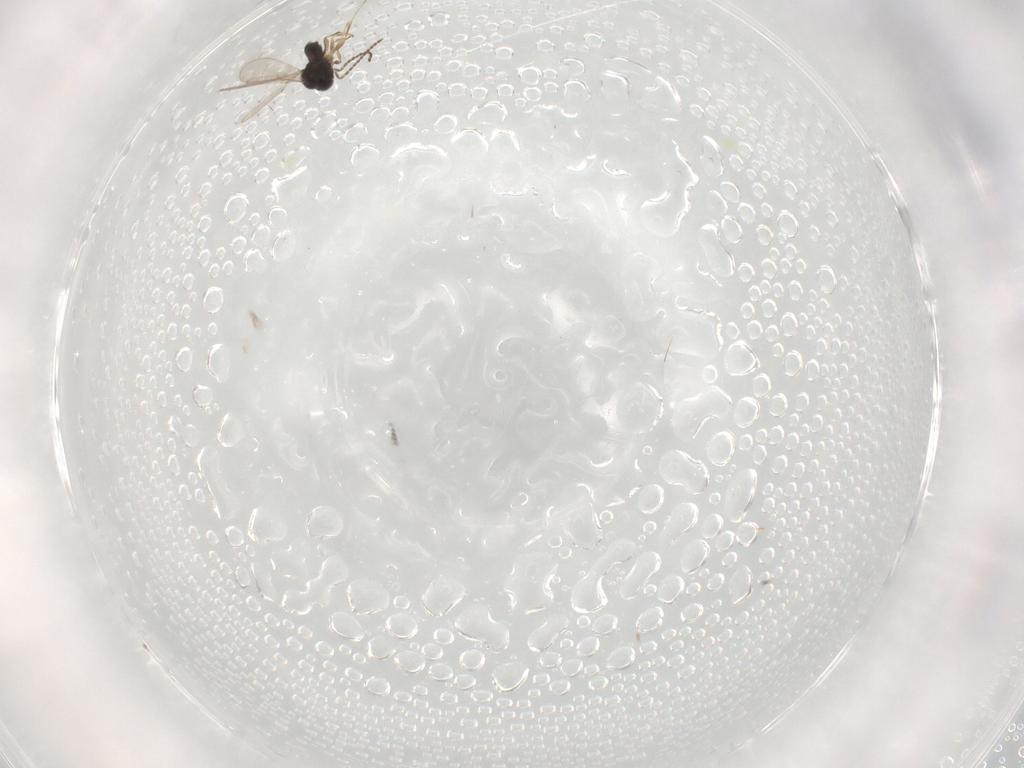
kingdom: Animalia
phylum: Arthropoda
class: Insecta
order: Hymenoptera
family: Scelionidae
